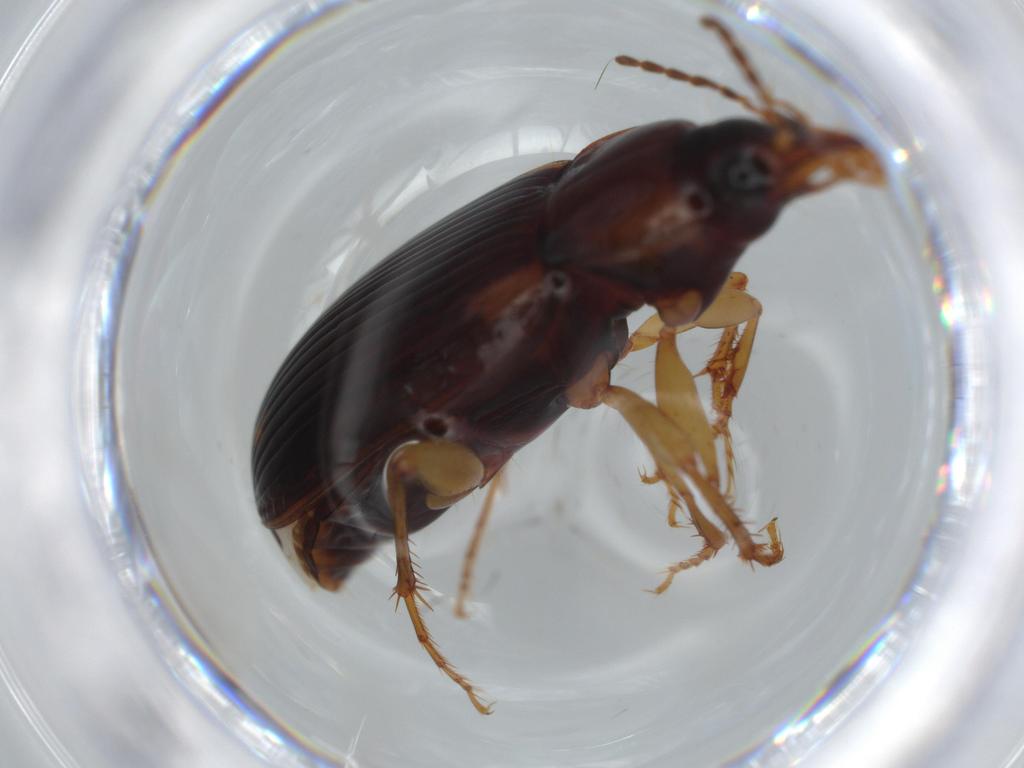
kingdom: Animalia
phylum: Arthropoda
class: Insecta
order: Coleoptera
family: Carabidae
